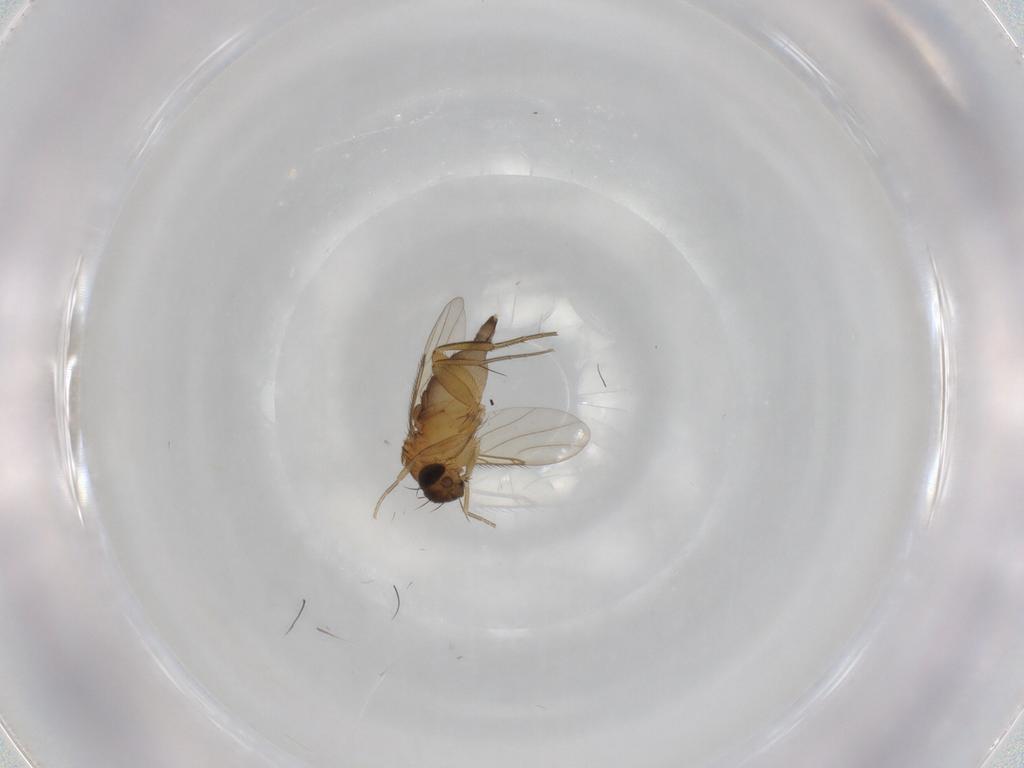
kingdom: Animalia
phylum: Arthropoda
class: Insecta
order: Diptera
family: Phoridae
